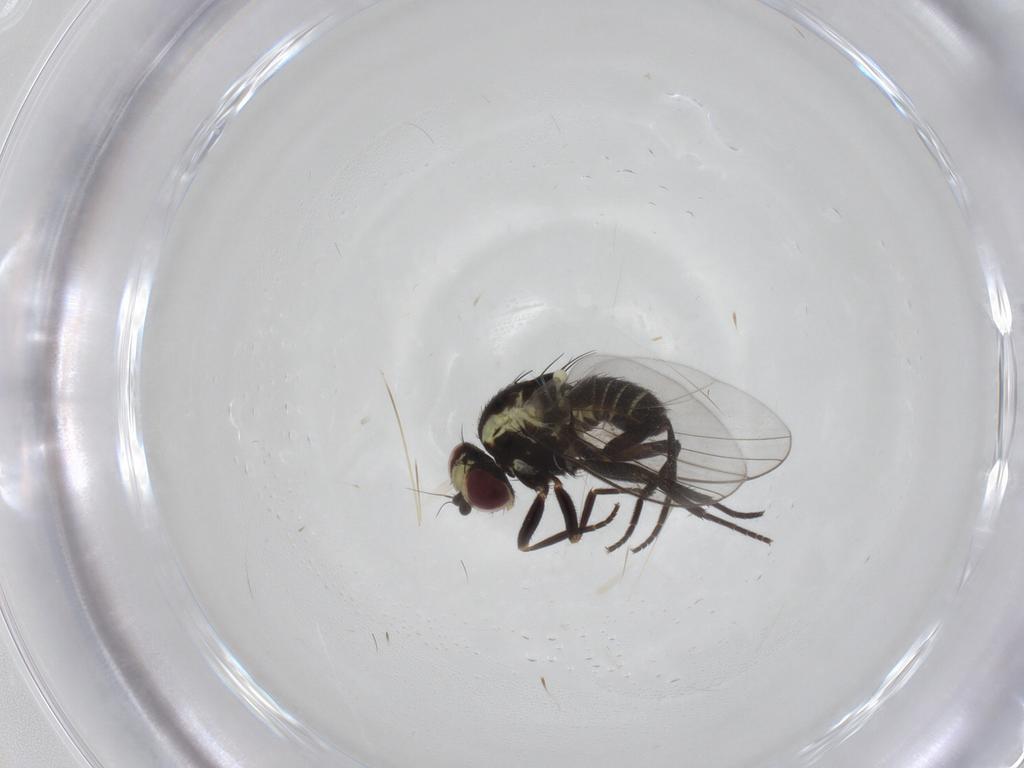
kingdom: Animalia
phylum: Arthropoda
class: Insecta
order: Diptera
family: Agromyzidae
